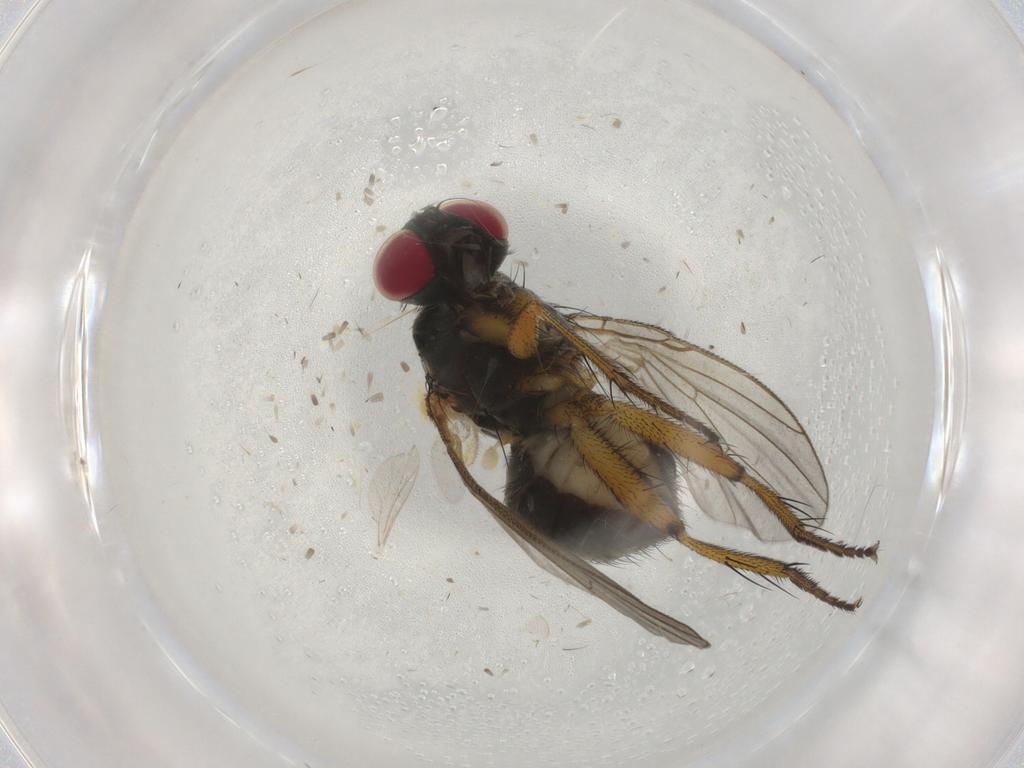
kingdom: Animalia
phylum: Arthropoda
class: Insecta
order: Diptera
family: Muscidae
